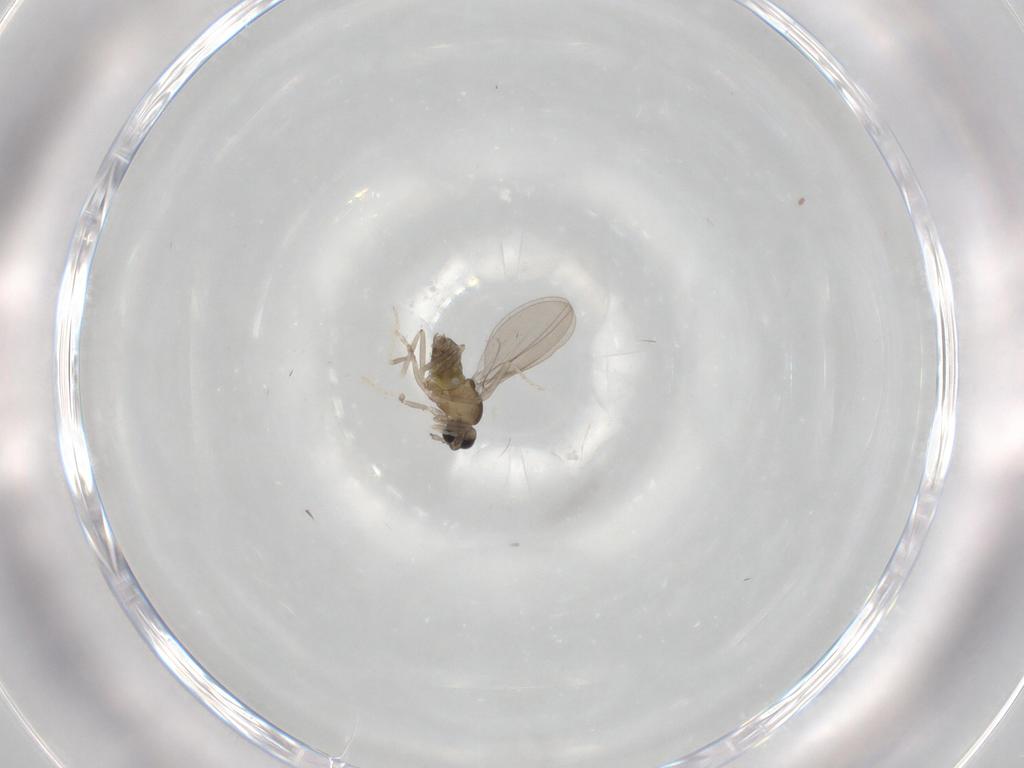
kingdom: Animalia
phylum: Arthropoda
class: Insecta
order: Diptera
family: Cecidomyiidae
